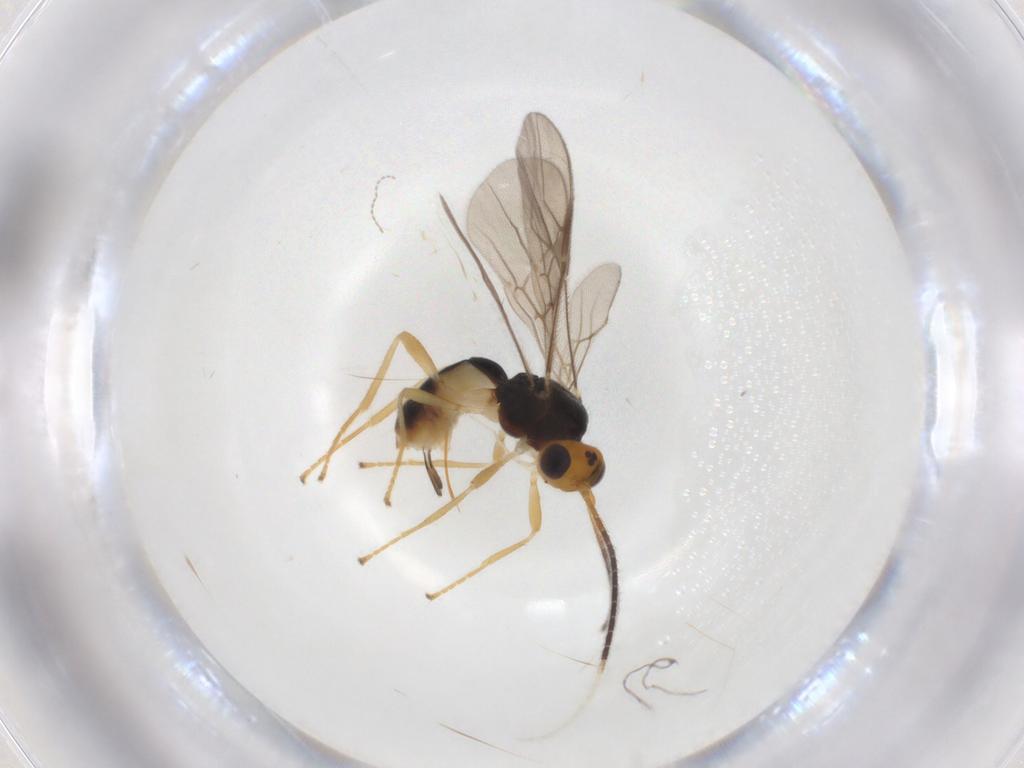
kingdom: Animalia
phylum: Arthropoda
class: Insecta
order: Hymenoptera
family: Braconidae
